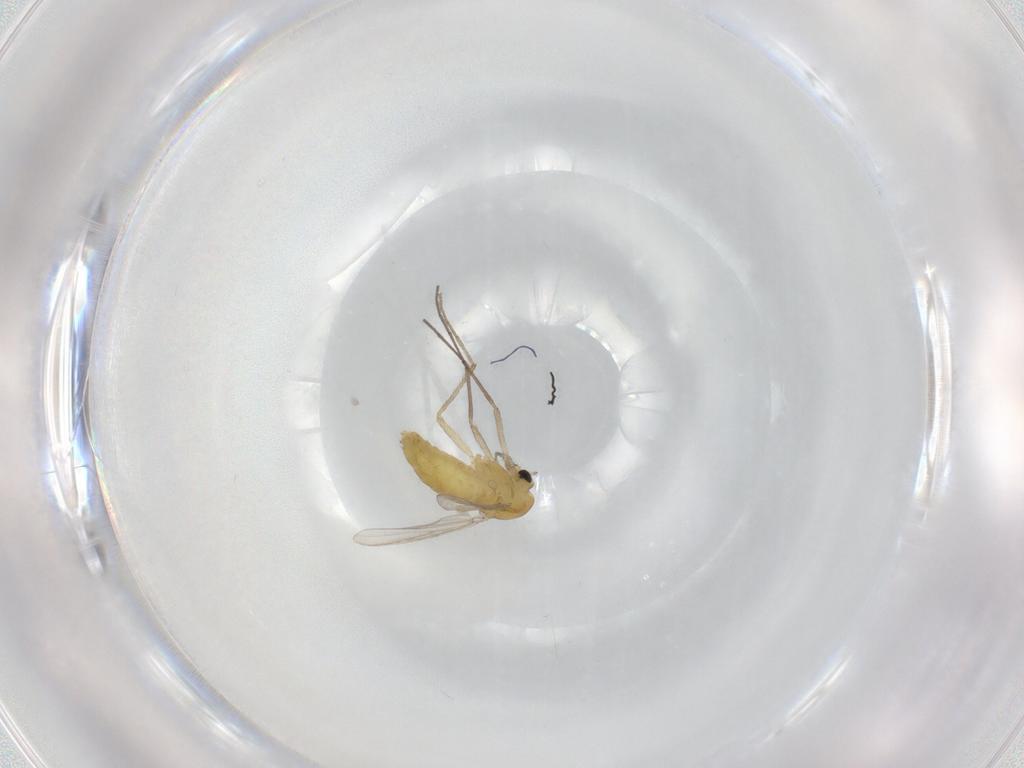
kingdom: Animalia
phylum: Arthropoda
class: Insecta
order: Diptera
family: Chironomidae
